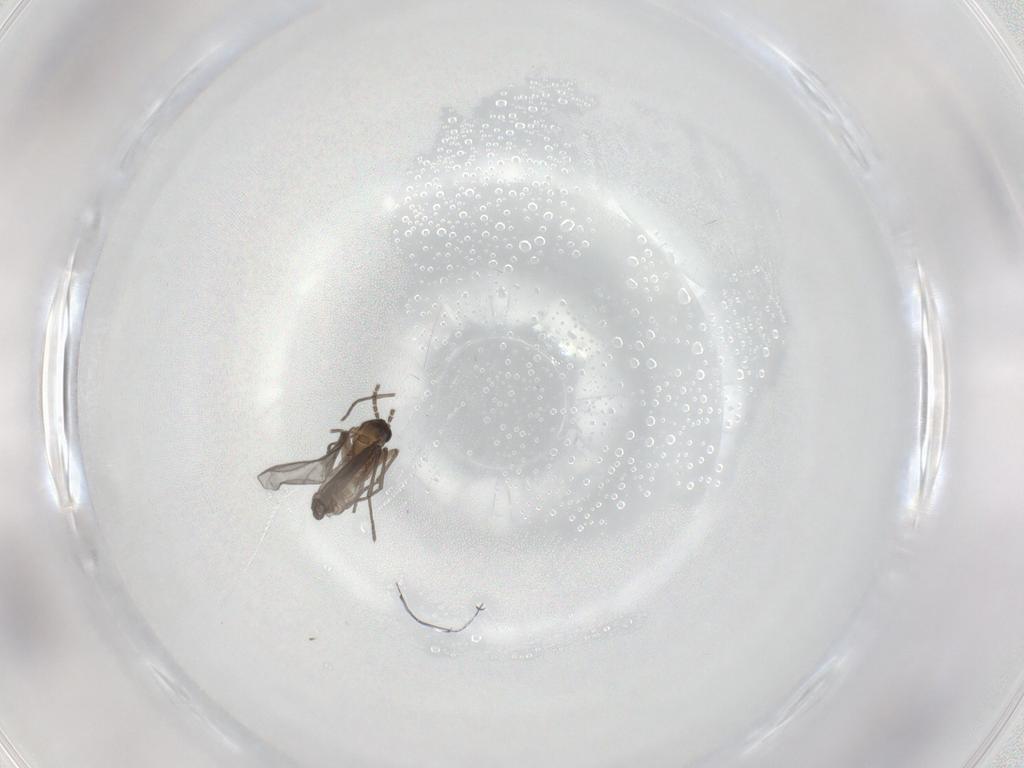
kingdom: Animalia
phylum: Arthropoda
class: Insecta
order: Diptera
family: Sciaridae
